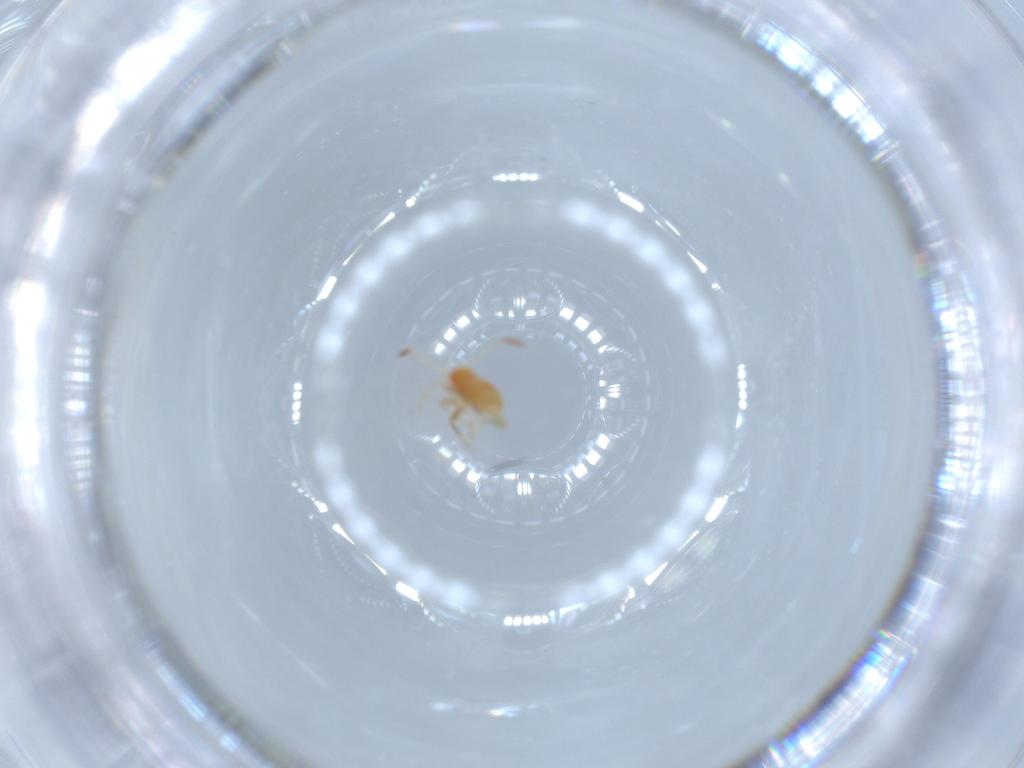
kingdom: Animalia
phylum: Arthropoda
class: Insecta
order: Hemiptera
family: Miridae
